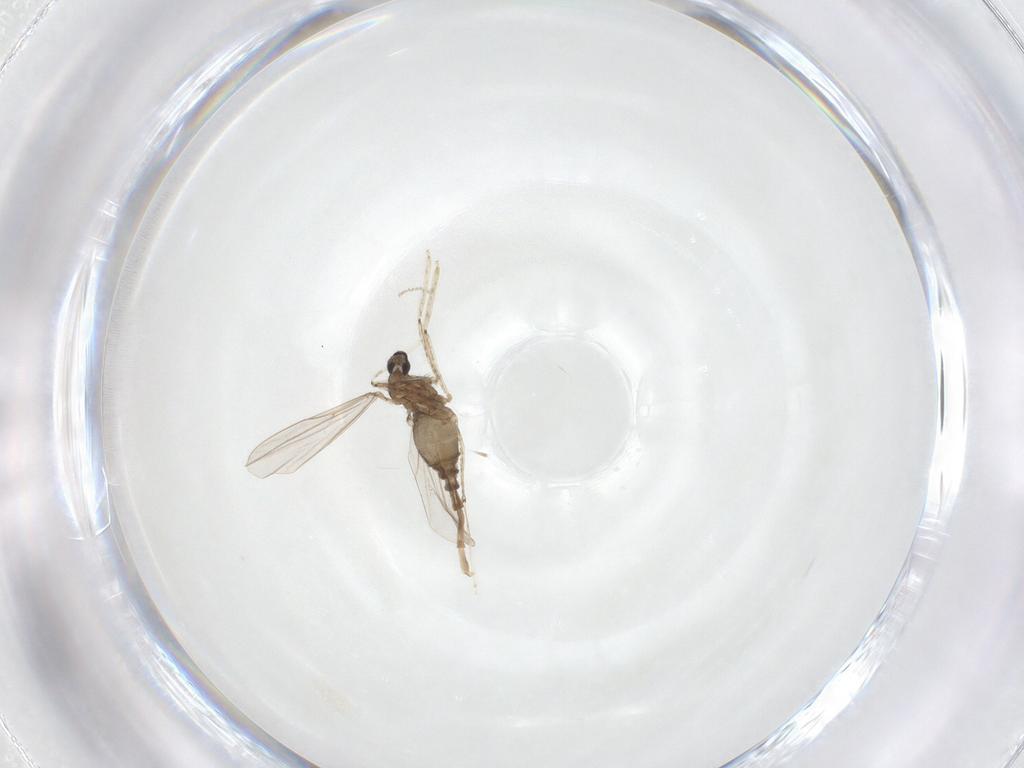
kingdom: Animalia
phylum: Arthropoda
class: Insecta
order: Diptera
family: Cecidomyiidae
